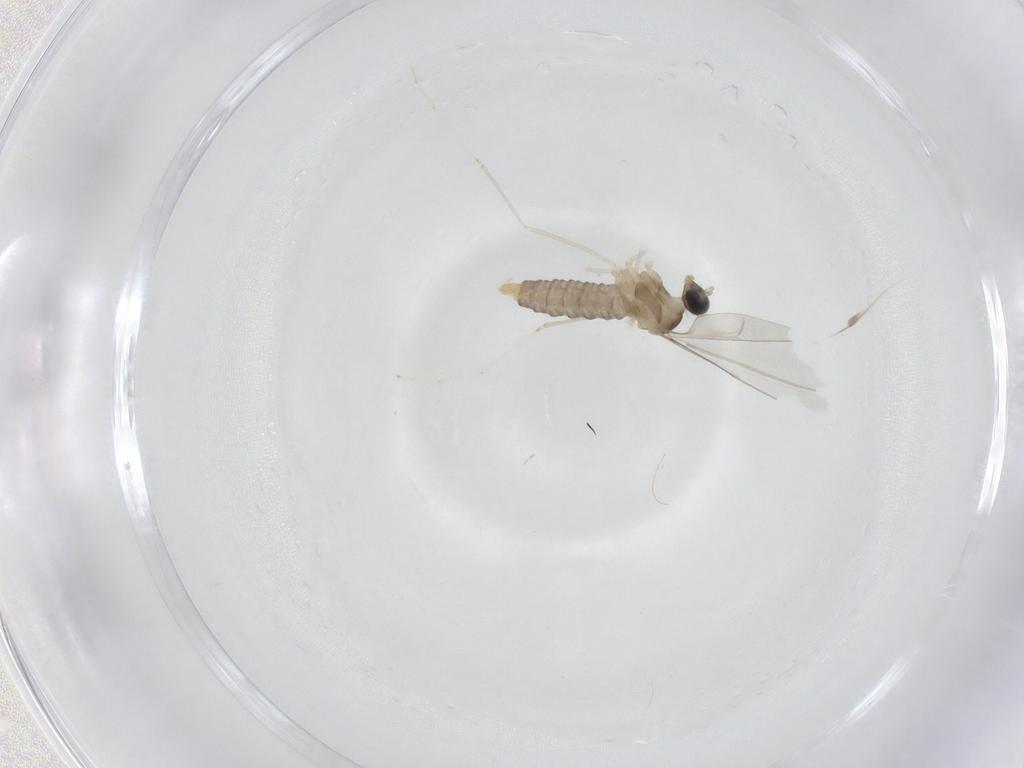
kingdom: Animalia
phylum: Arthropoda
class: Insecta
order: Diptera
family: Cecidomyiidae
